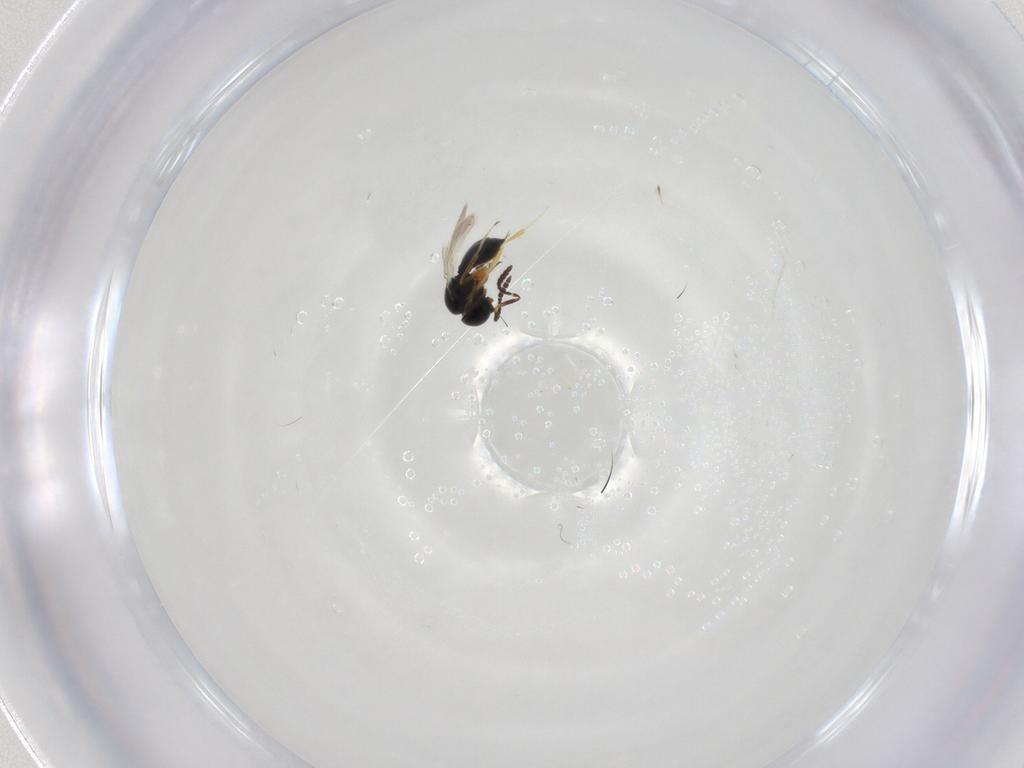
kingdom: Animalia
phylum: Arthropoda
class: Insecta
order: Hymenoptera
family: Scelionidae
